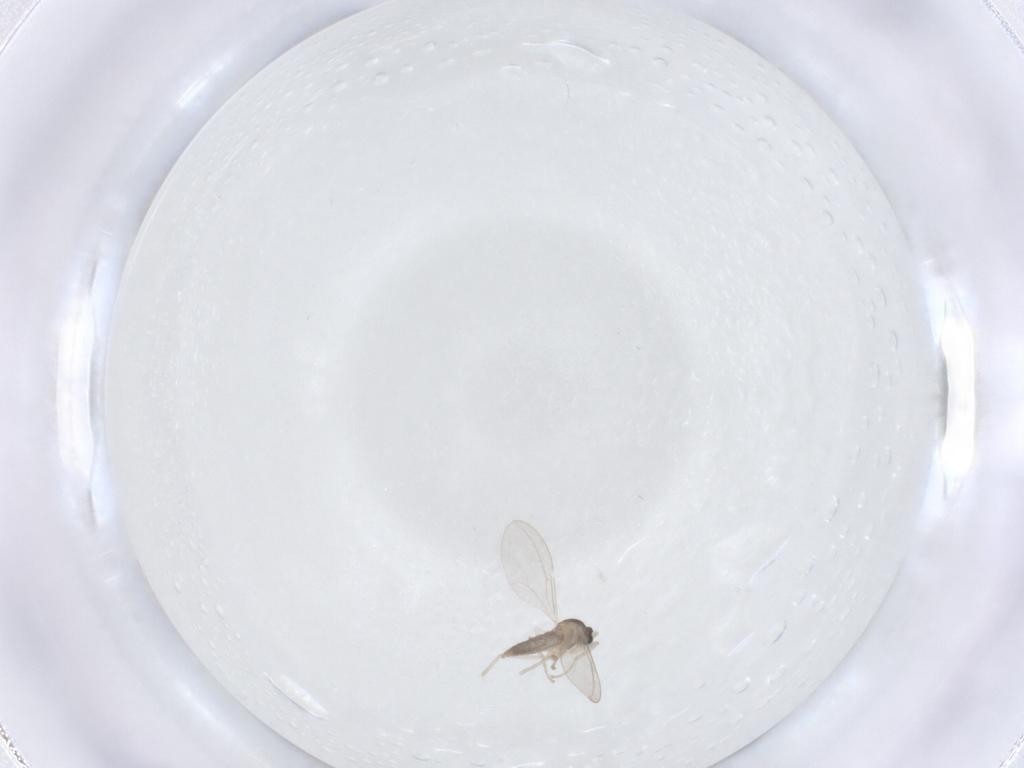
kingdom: Animalia
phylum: Arthropoda
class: Insecta
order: Diptera
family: Cecidomyiidae
